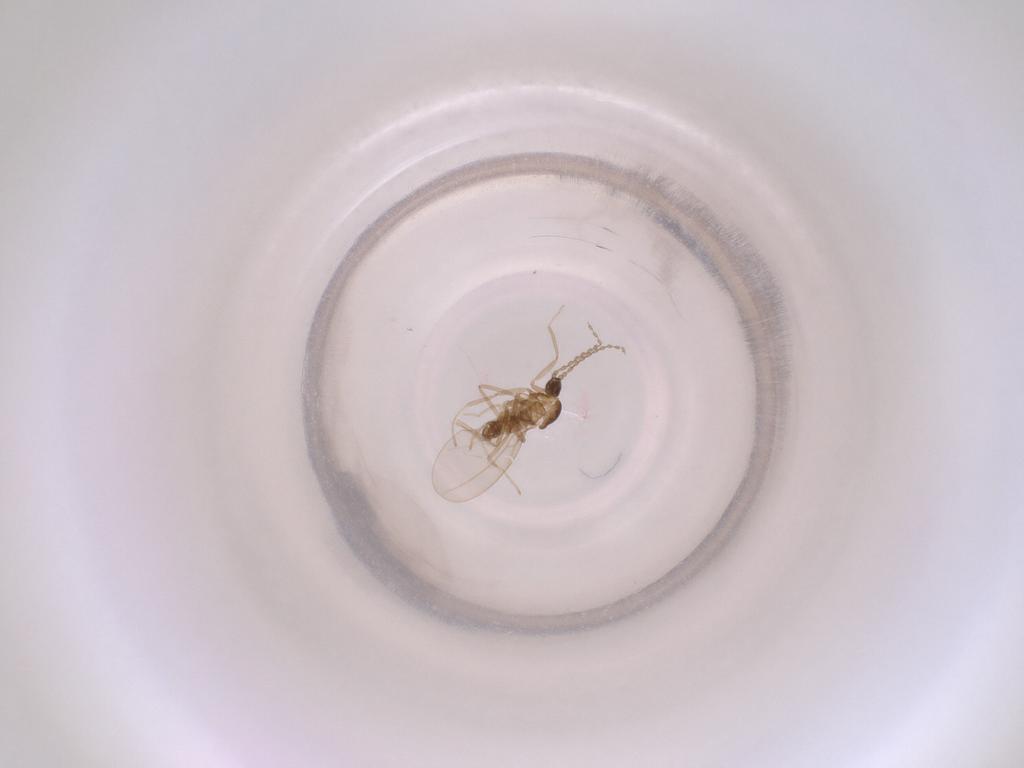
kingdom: Animalia
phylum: Arthropoda
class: Insecta
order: Diptera
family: Cecidomyiidae
